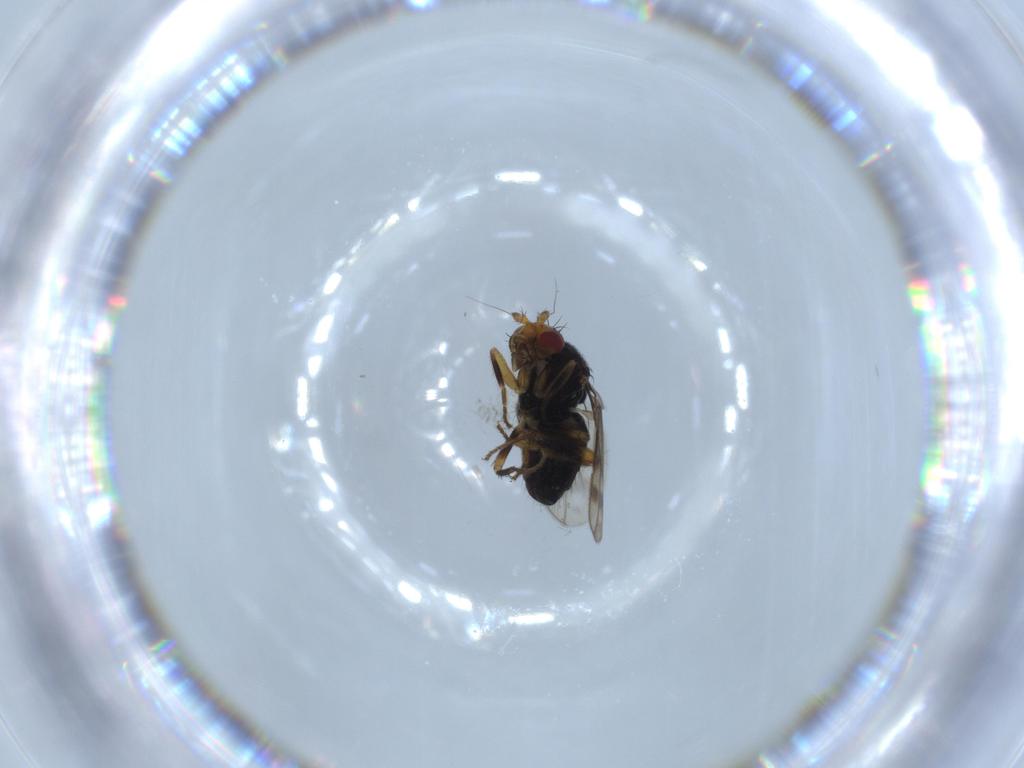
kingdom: Animalia
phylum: Arthropoda
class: Insecta
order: Diptera
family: Sphaeroceridae
